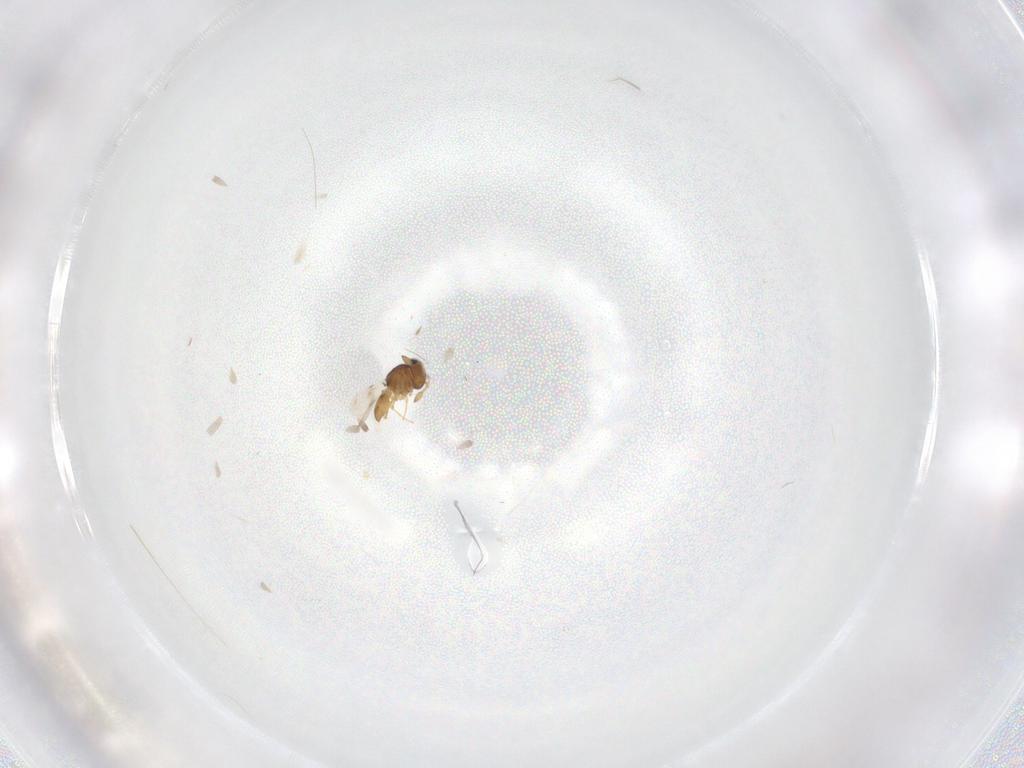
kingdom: Animalia
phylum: Arthropoda
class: Insecta
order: Hymenoptera
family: Scelionidae
